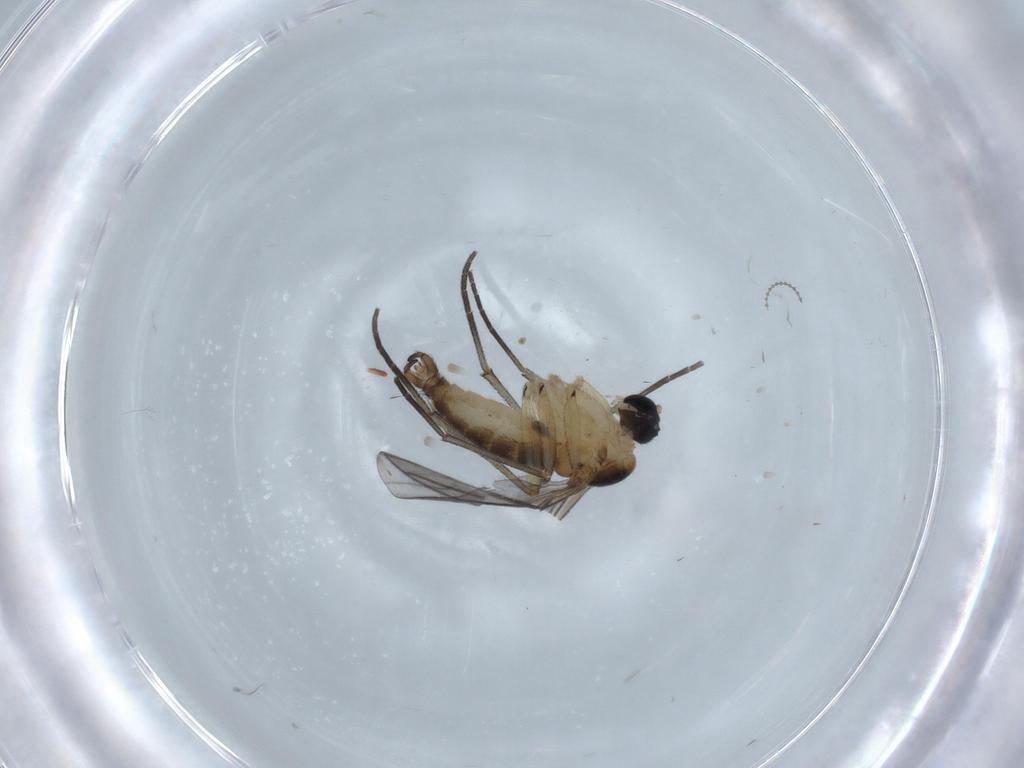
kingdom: Animalia
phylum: Arthropoda
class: Insecta
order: Diptera
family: Sciaridae
